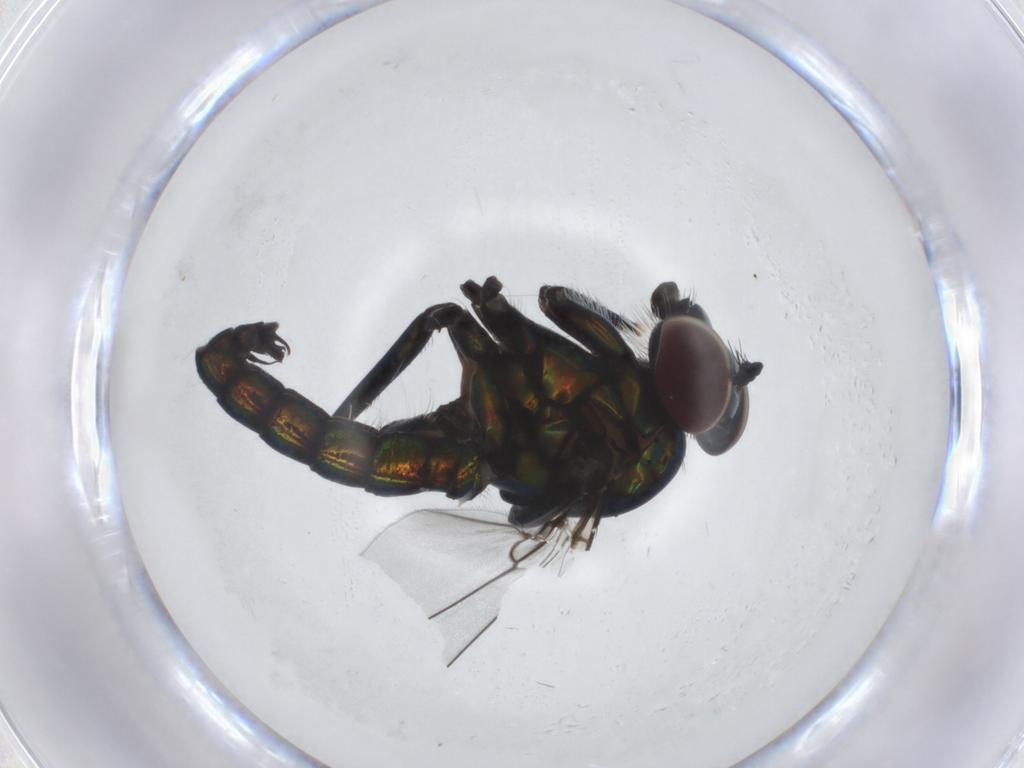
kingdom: Animalia
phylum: Arthropoda
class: Insecta
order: Diptera
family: Dolichopodidae
